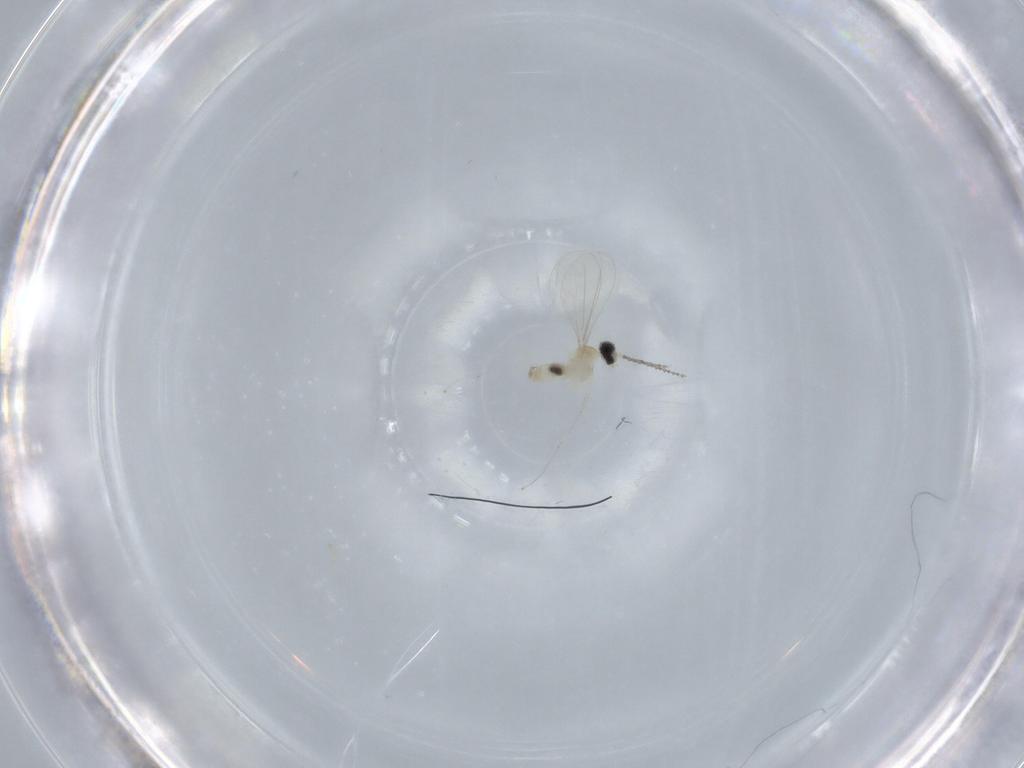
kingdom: Animalia
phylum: Arthropoda
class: Insecta
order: Diptera
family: Cecidomyiidae
